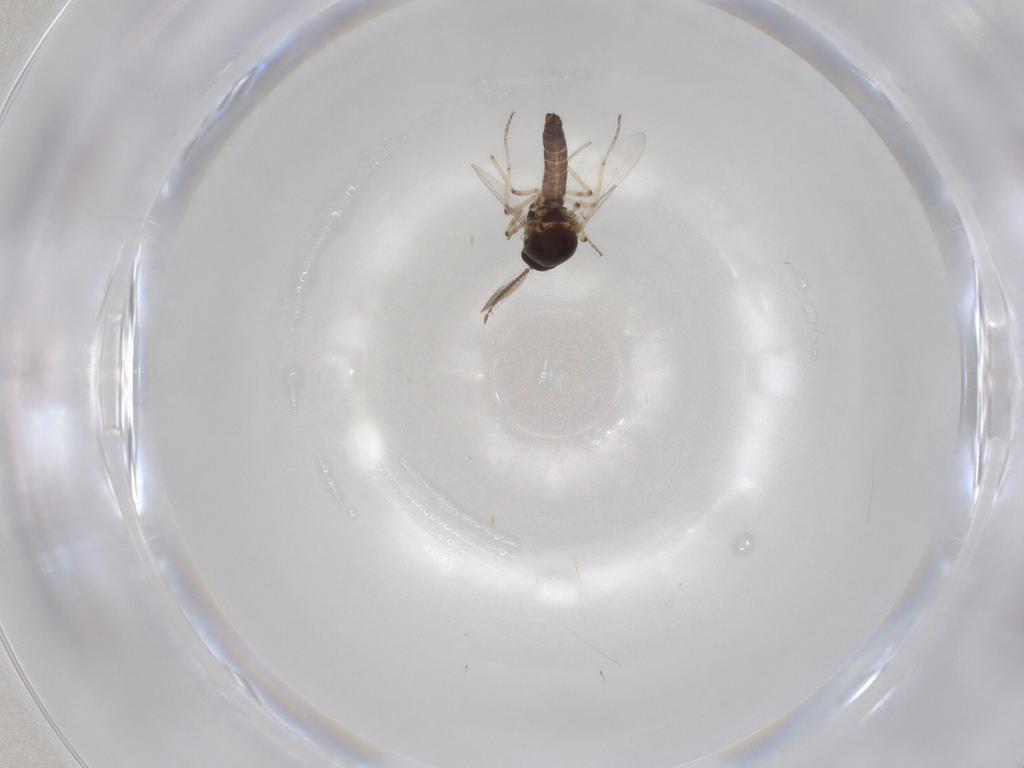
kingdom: Animalia
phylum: Arthropoda
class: Insecta
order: Diptera
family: Ceratopogonidae
